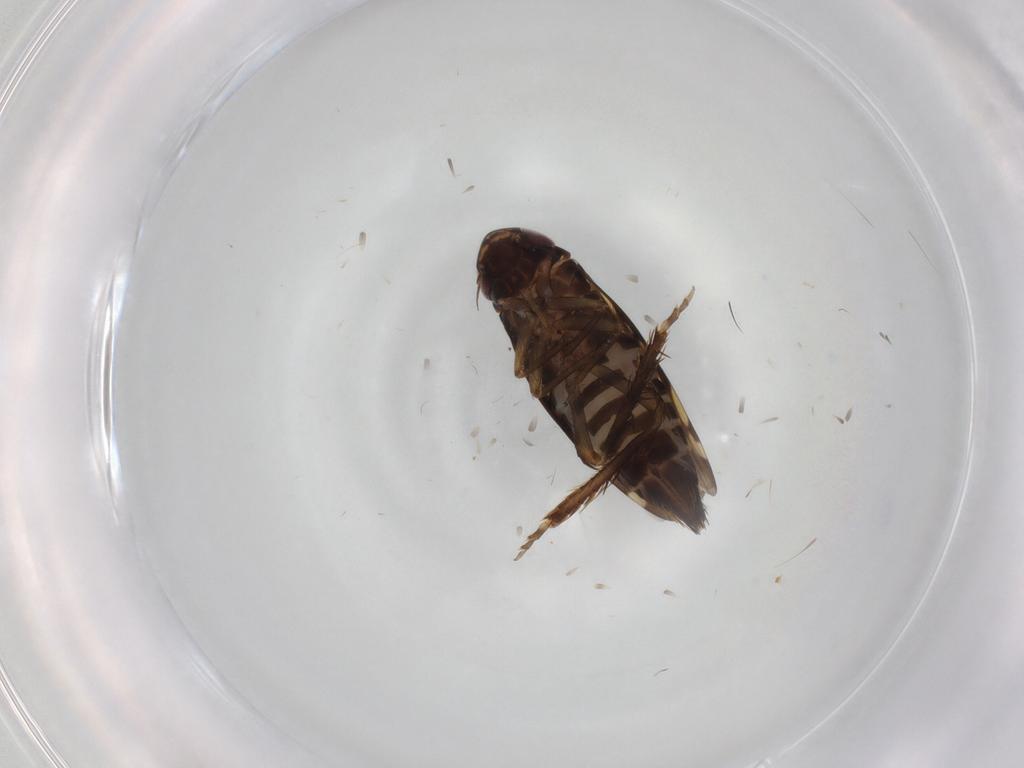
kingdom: Animalia
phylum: Arthropoda
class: Insecta
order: Hemiptera
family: Cicadellidae
